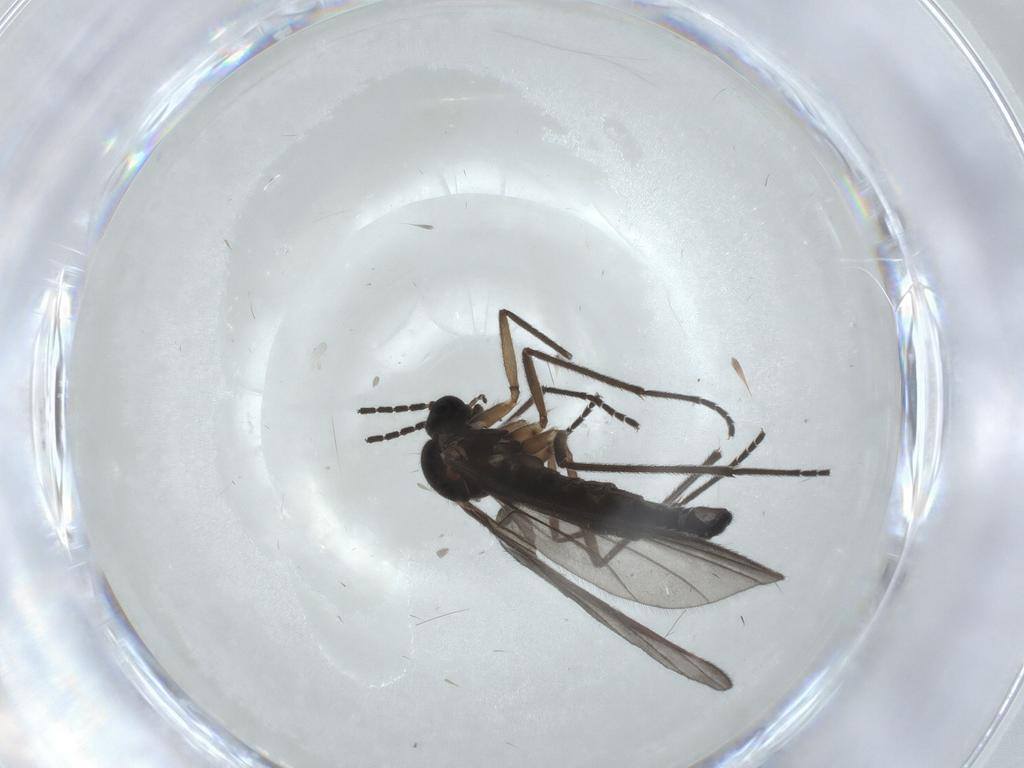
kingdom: Animalia
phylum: Arthropoda
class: Insecta
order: Diptera
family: Sciaridae
